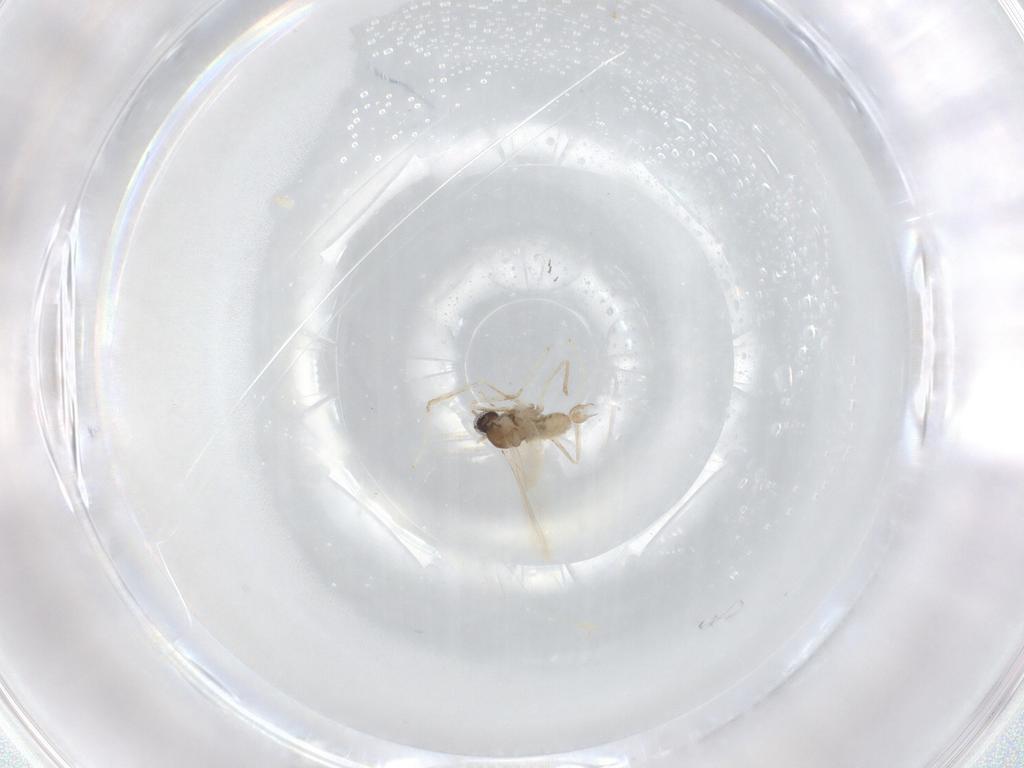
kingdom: Animalia
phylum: Arthropoda
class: Insecta
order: Diptera
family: Cecidomyiidae
